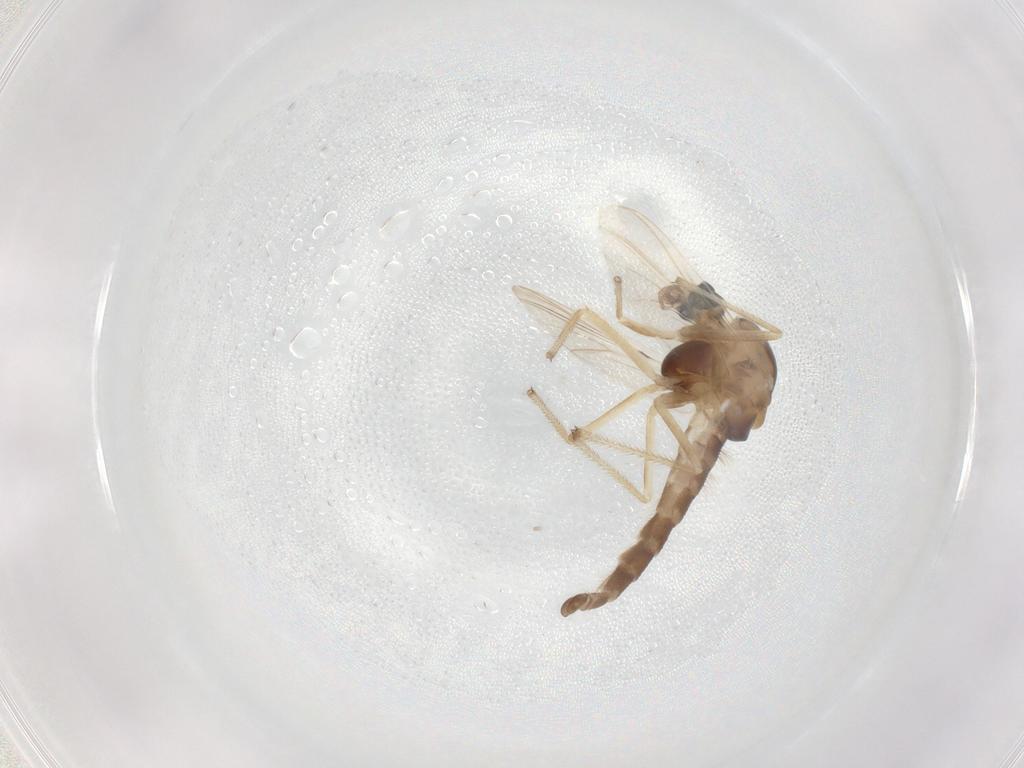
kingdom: Animalia
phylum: Arthropoda
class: Insecta
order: Diptera
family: Chironomidae
